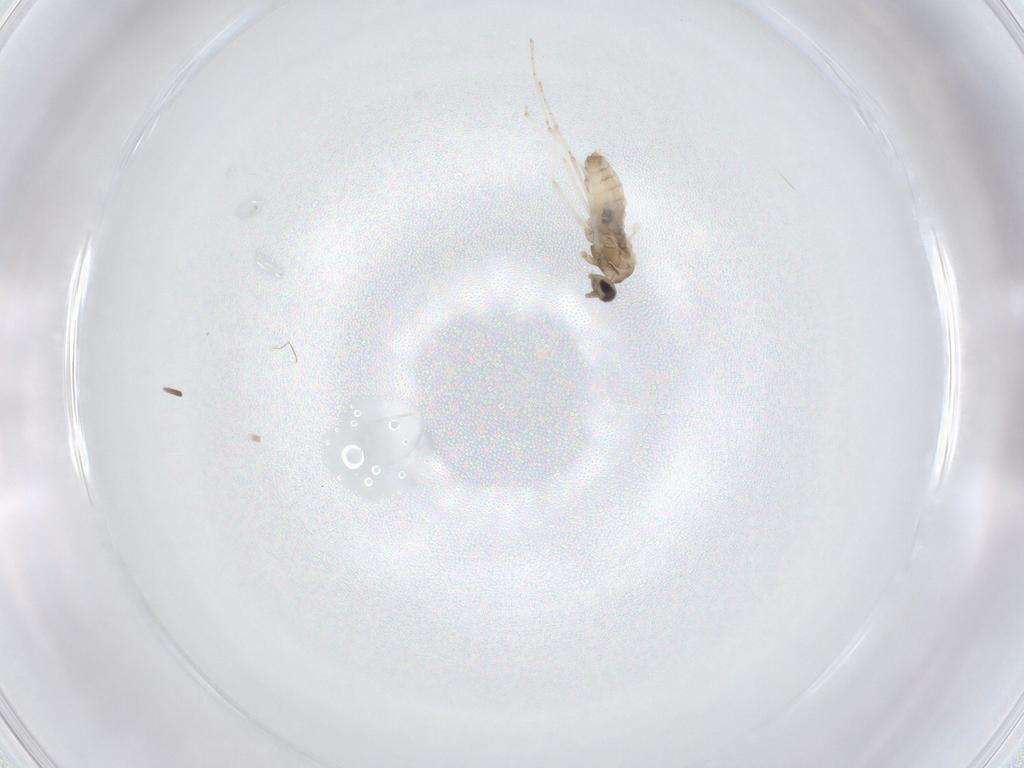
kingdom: Animalia
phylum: Arthropoda
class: Insecta
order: Diptera
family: Cecidomyiidae
